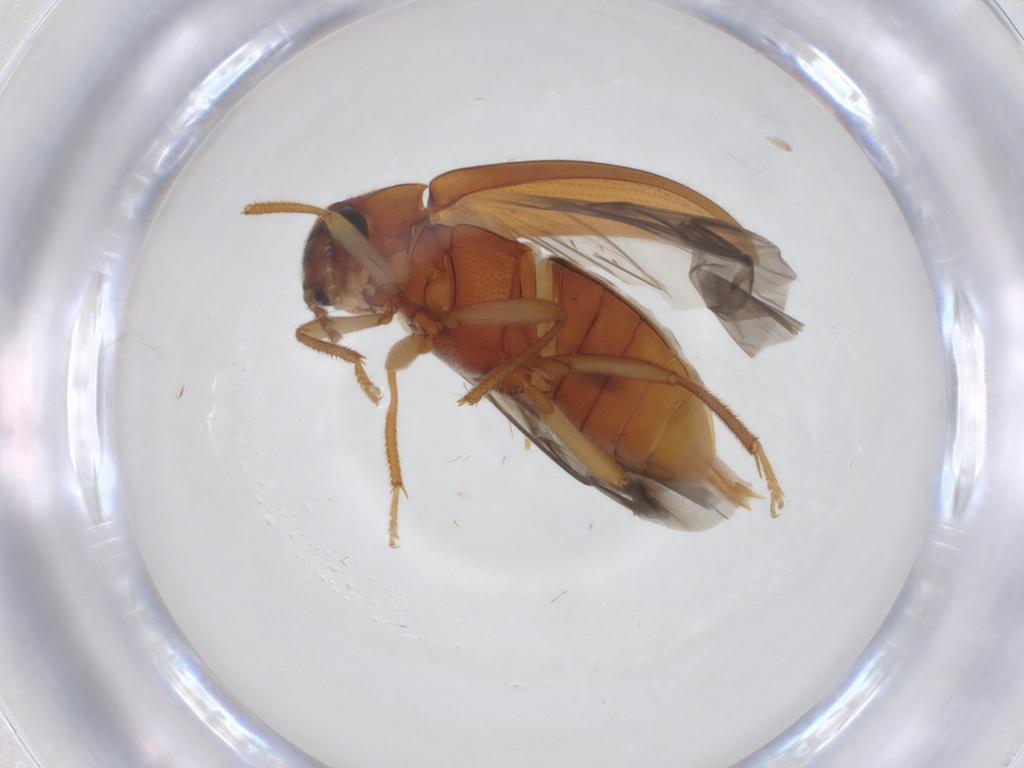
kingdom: Animalia
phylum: Arthropoda
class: Insecta
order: Coleoptera
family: Ptilodactylidae
